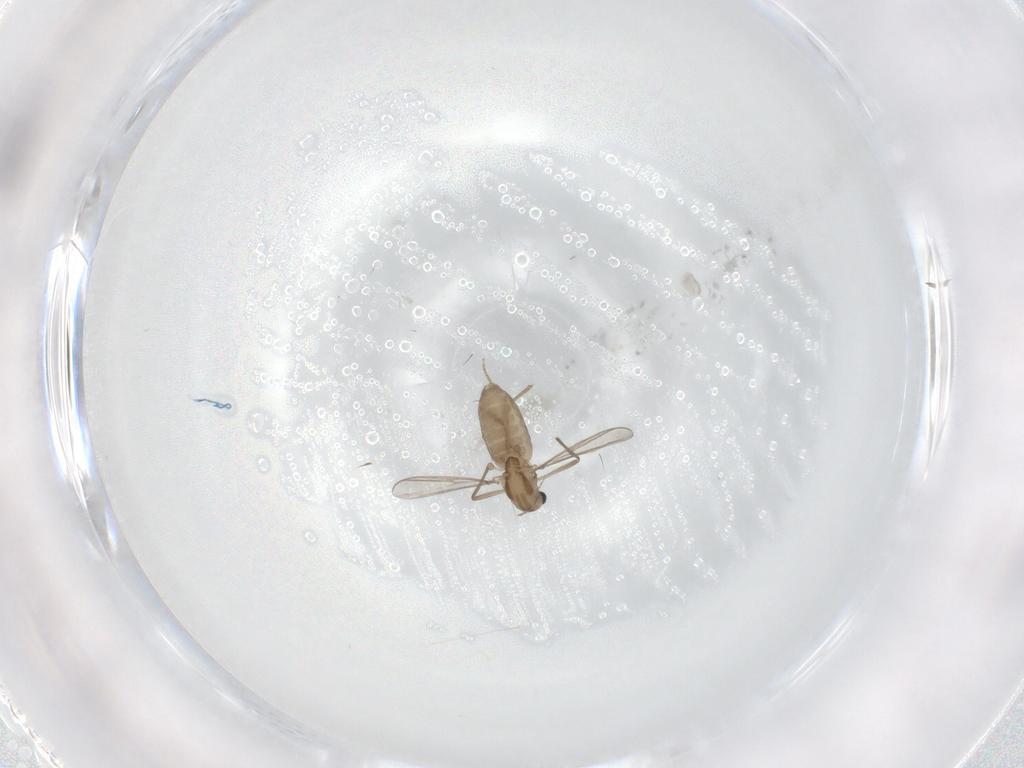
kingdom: Animalia
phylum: Arthropoda
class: Insecta
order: Diptera
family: Chironomidae
